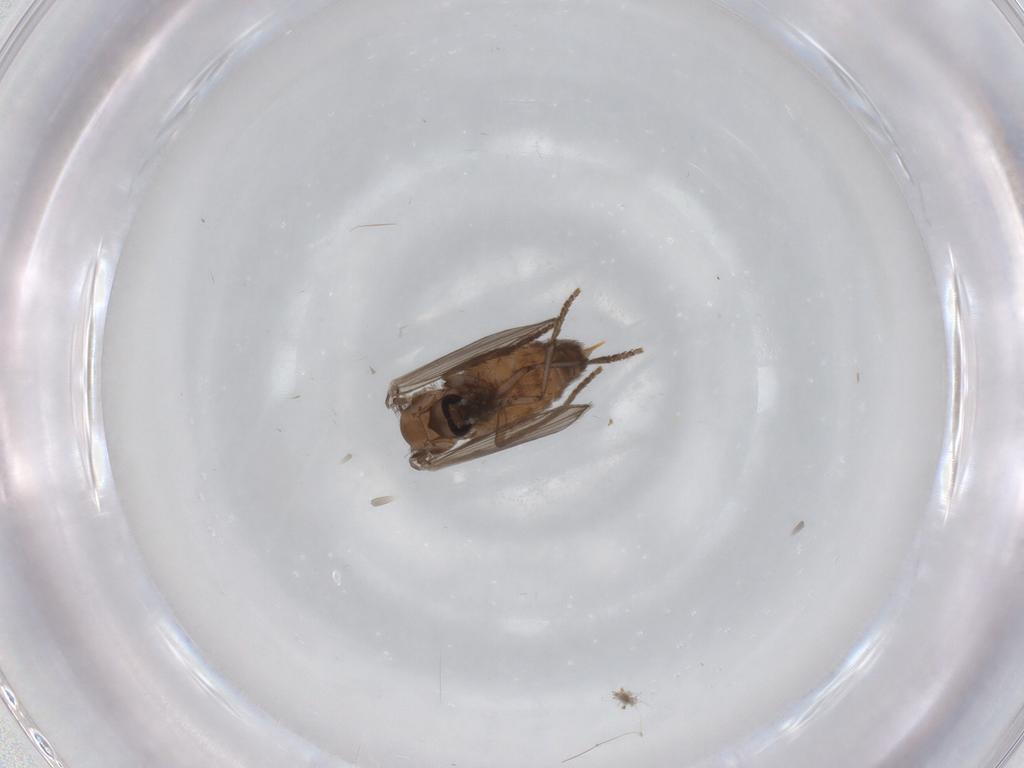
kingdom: Animalia
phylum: Arthropoda
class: Insecta
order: Diptera
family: Psychodidae
